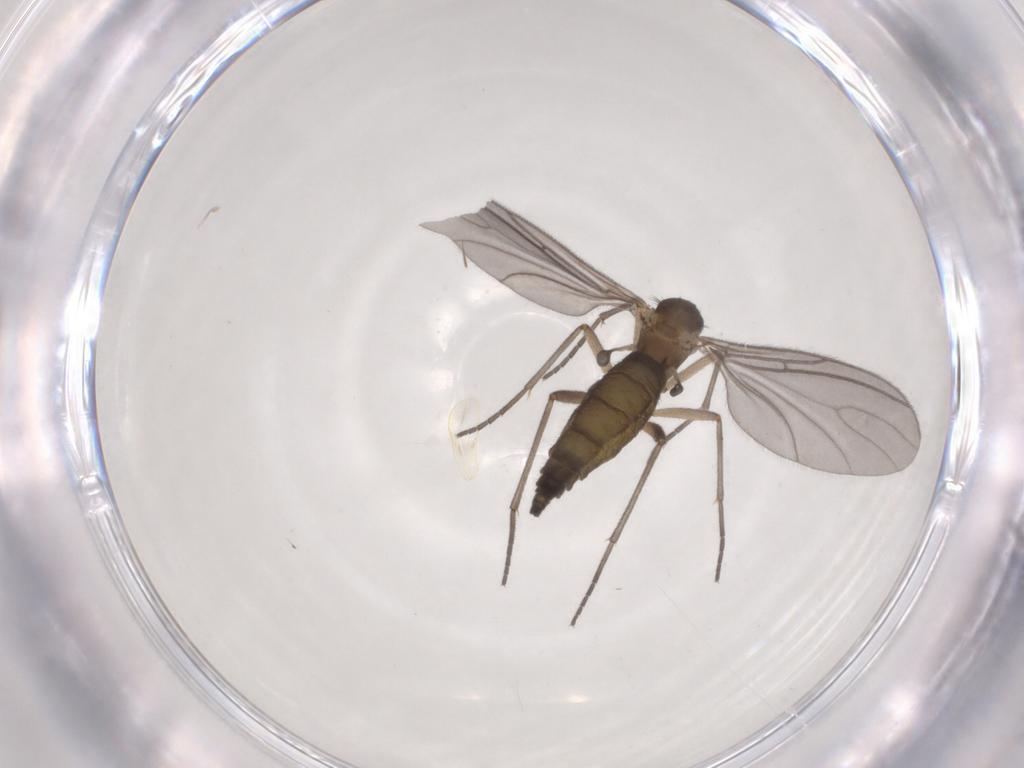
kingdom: Animalia
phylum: Arthropoda
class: Insecta
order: Diptera
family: Sciaridae
